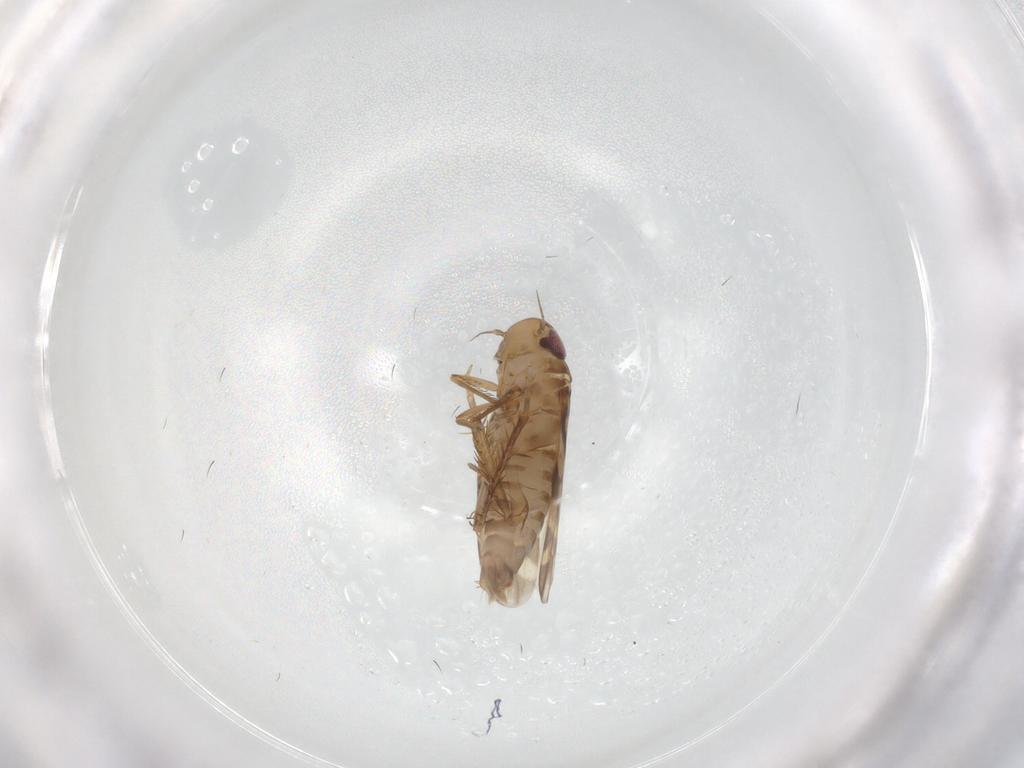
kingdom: Animalia
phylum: Arthropoda
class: Insecta
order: Hemiptera
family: Cicadellidae
